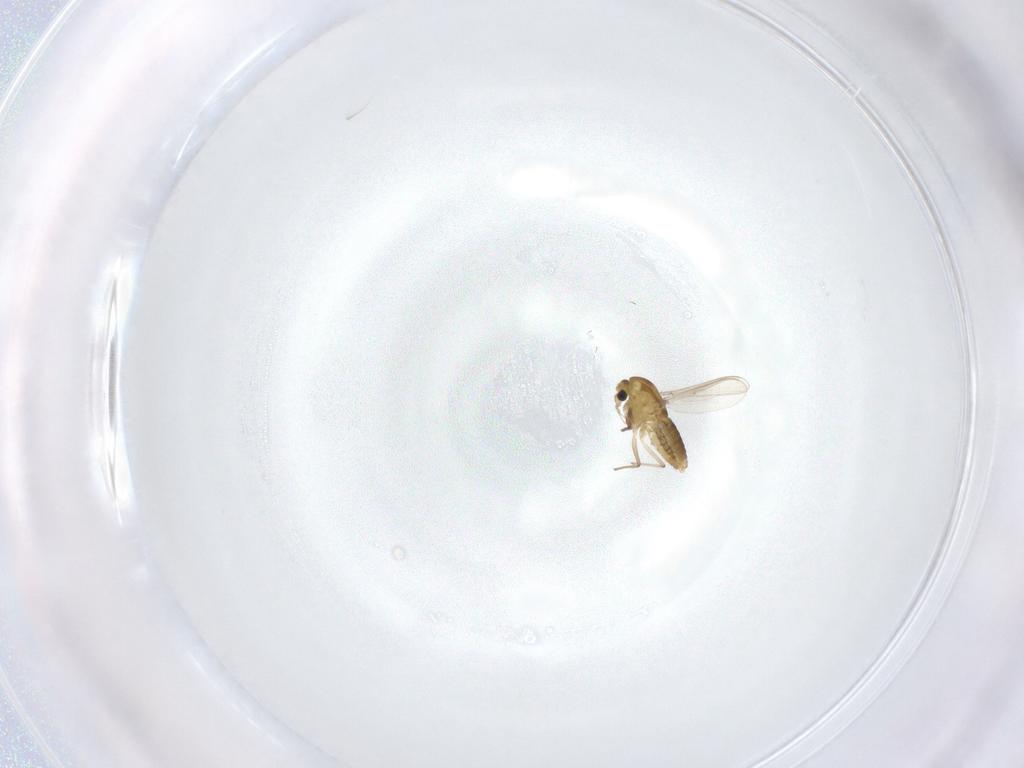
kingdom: Animalia
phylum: Arthropoda
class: Insecta
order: Diptera
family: Chironomidae
